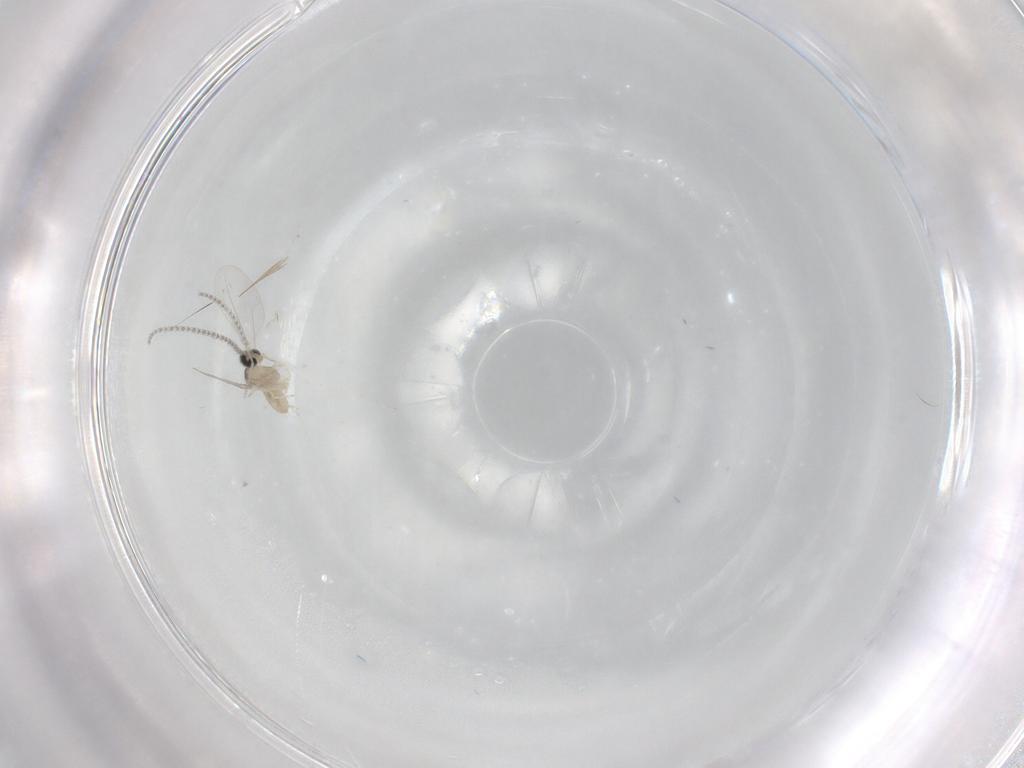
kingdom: Animalia
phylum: Arthropoda
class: Insecta
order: Diptera
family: Cecidomyiidae
